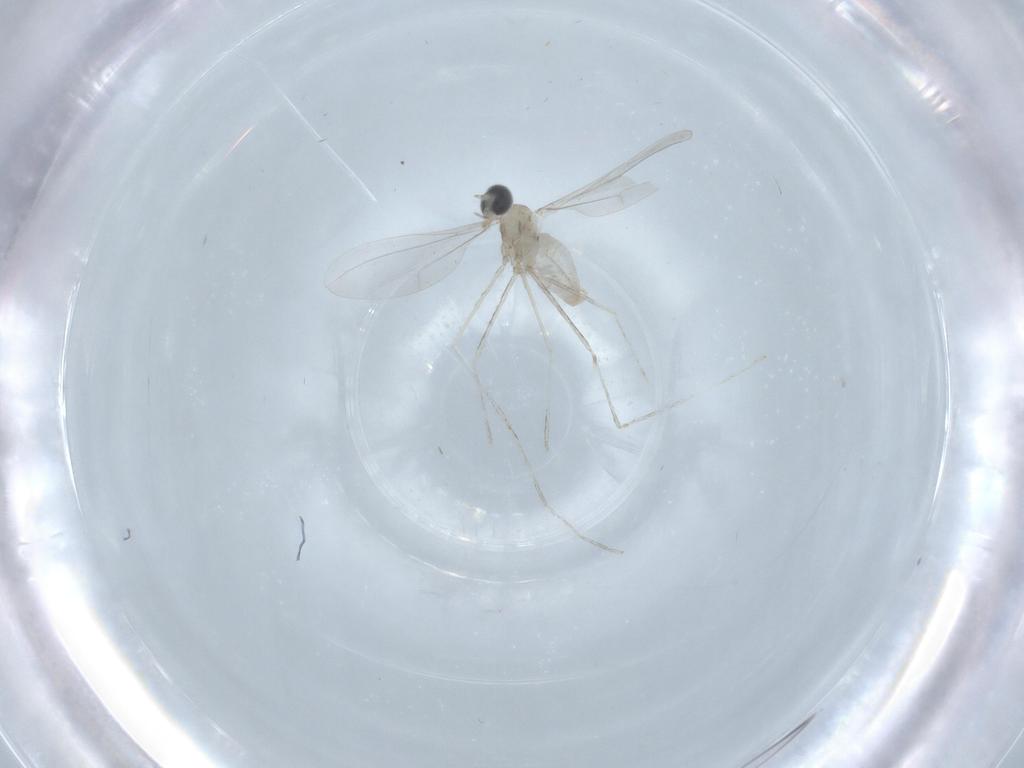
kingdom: Animalia
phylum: Arthropoda
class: Insecta
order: Diptera
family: Cecidomyiidae
